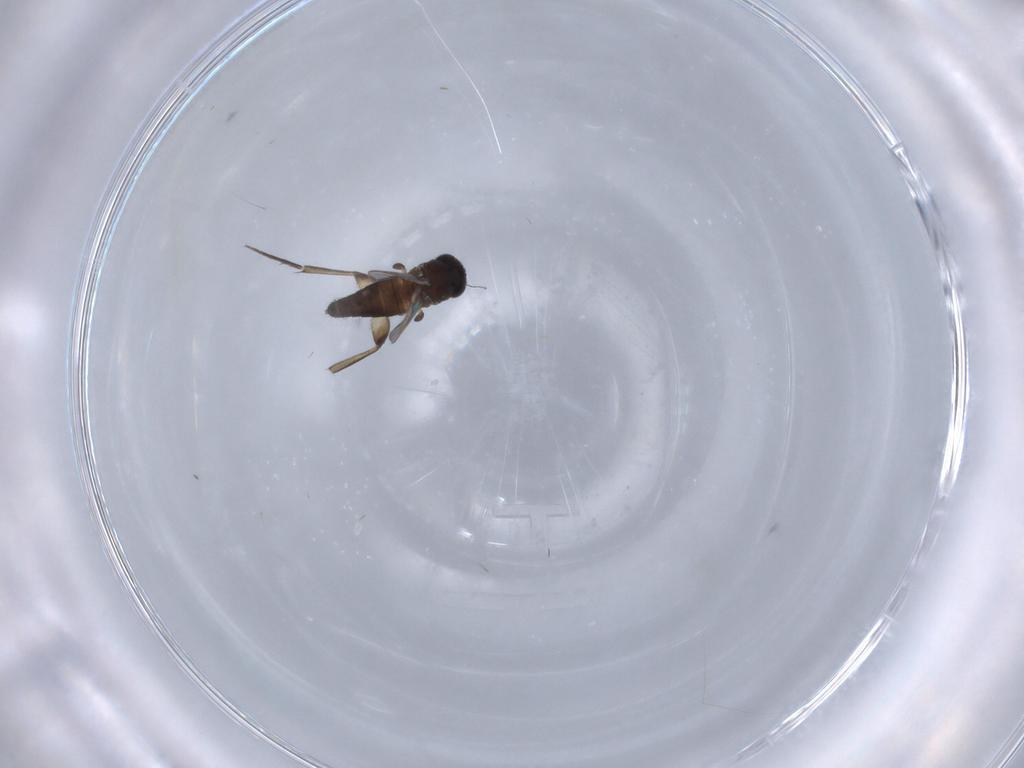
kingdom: Animalia
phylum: Arthropoda
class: Insecta
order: Diptera
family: Phoridae
